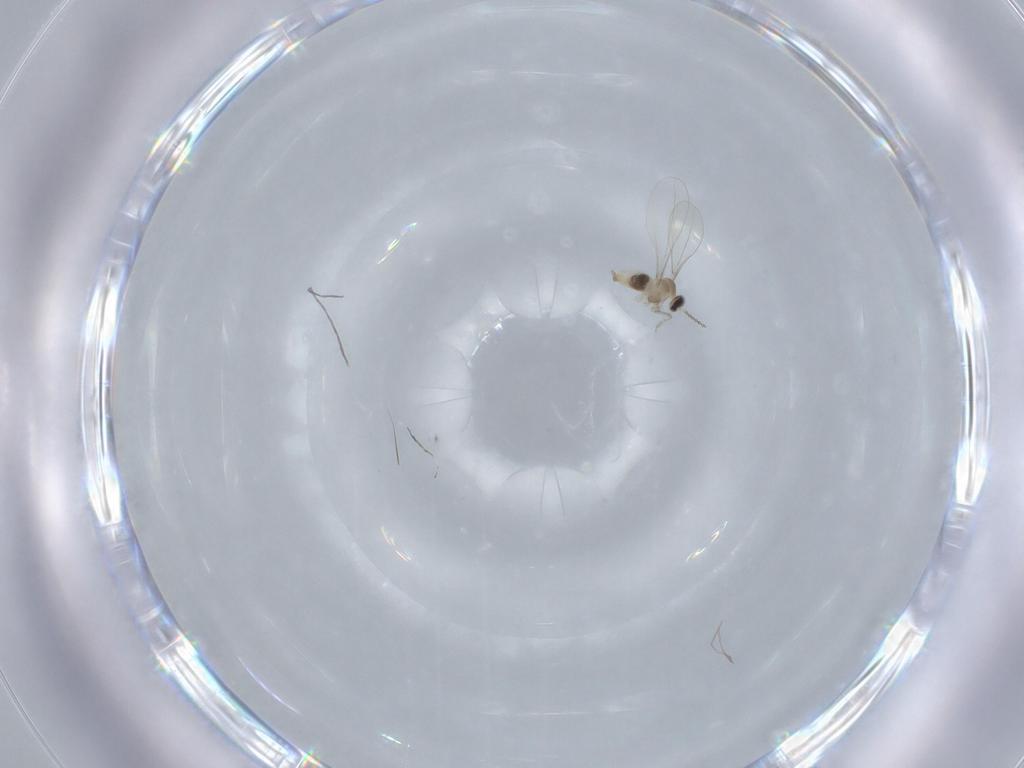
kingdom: Animalia
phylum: Arthropoda
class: Insecta
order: Diptera
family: Cecidomyiidae
